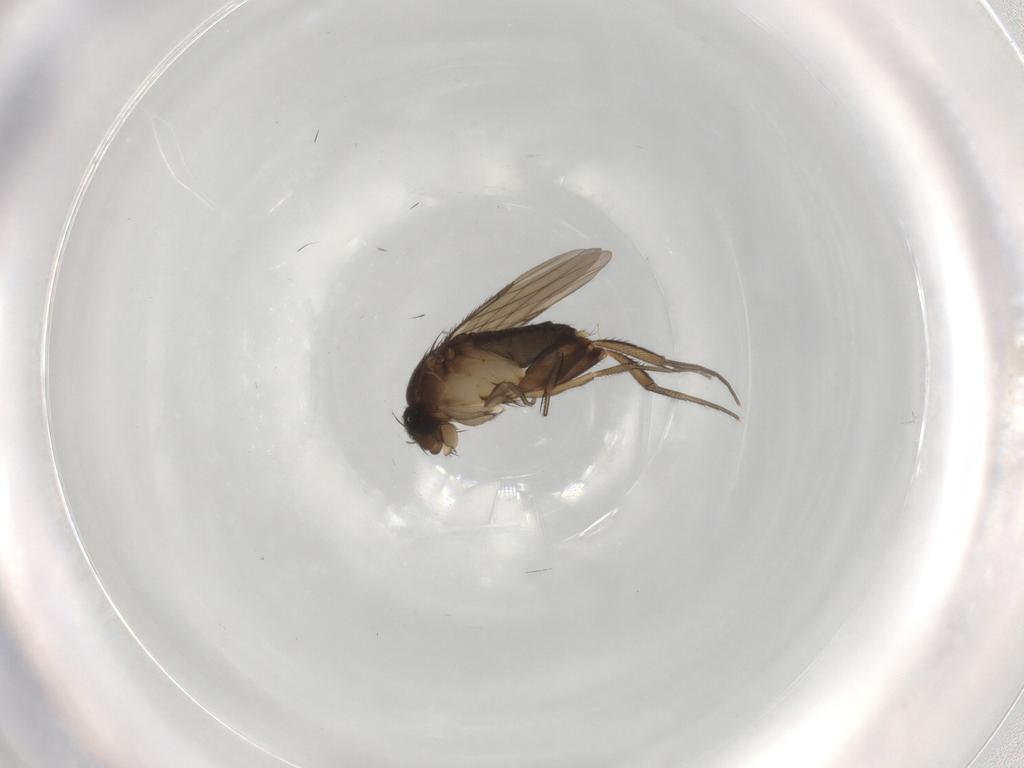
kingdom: Animalia
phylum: Arthropoda
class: Insecta
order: Diptera
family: Phoridae
